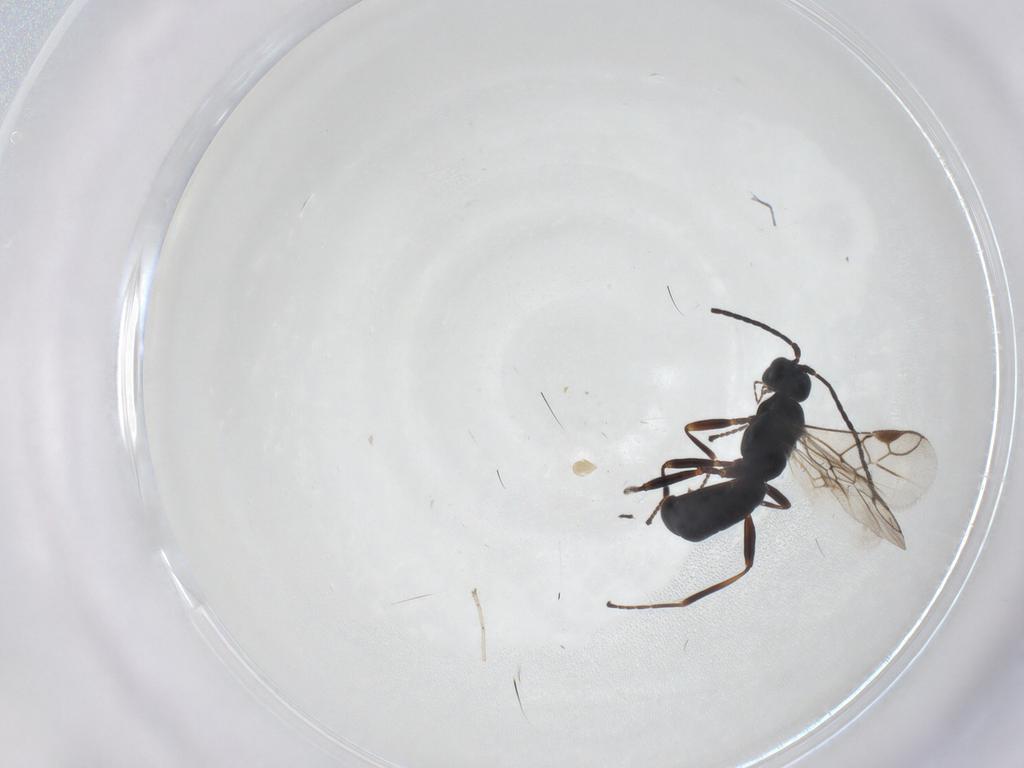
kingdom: Animalia
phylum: Arthropoda
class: Insecta
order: Hymenoptera
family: Braconidae
